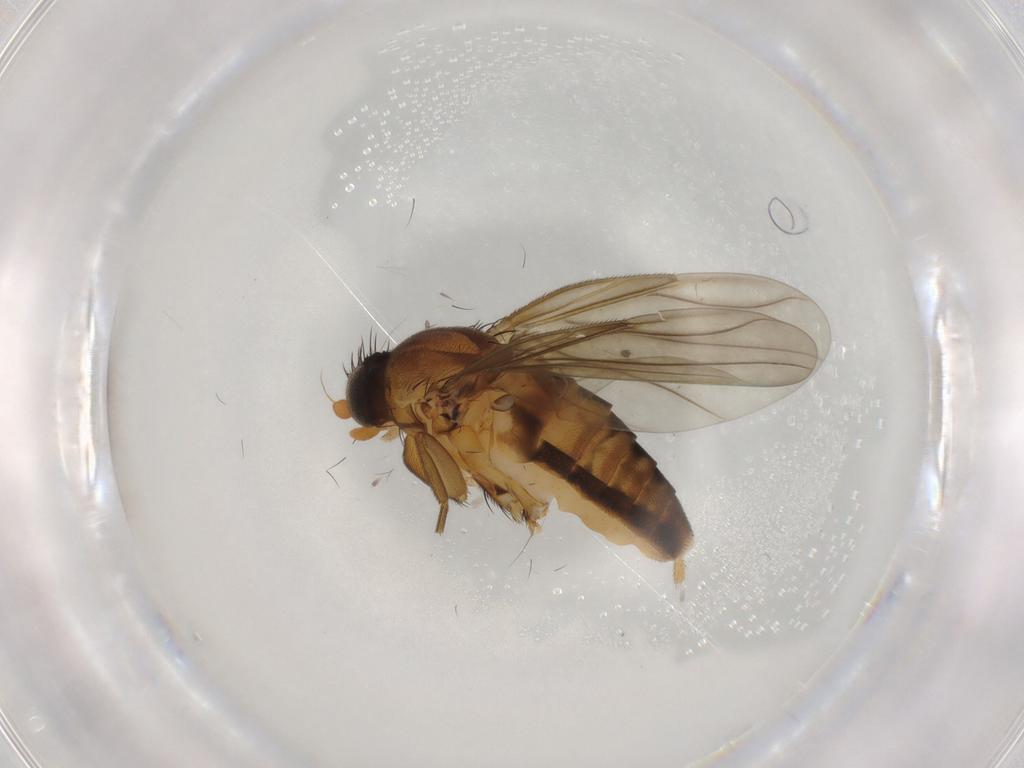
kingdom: Animalia
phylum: Arthropoda
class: Insecta
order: Diptera
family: Phoridae
